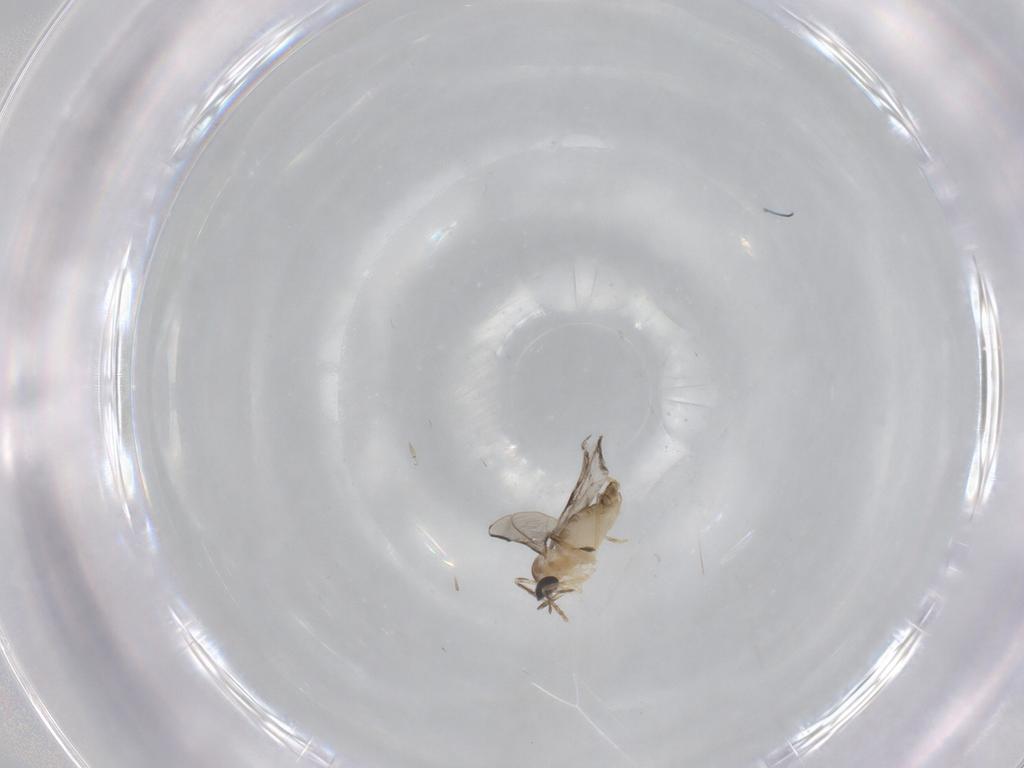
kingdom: Animalia
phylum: Arthropoda
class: Insecta
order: Diptera
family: Cecidomyiidae
